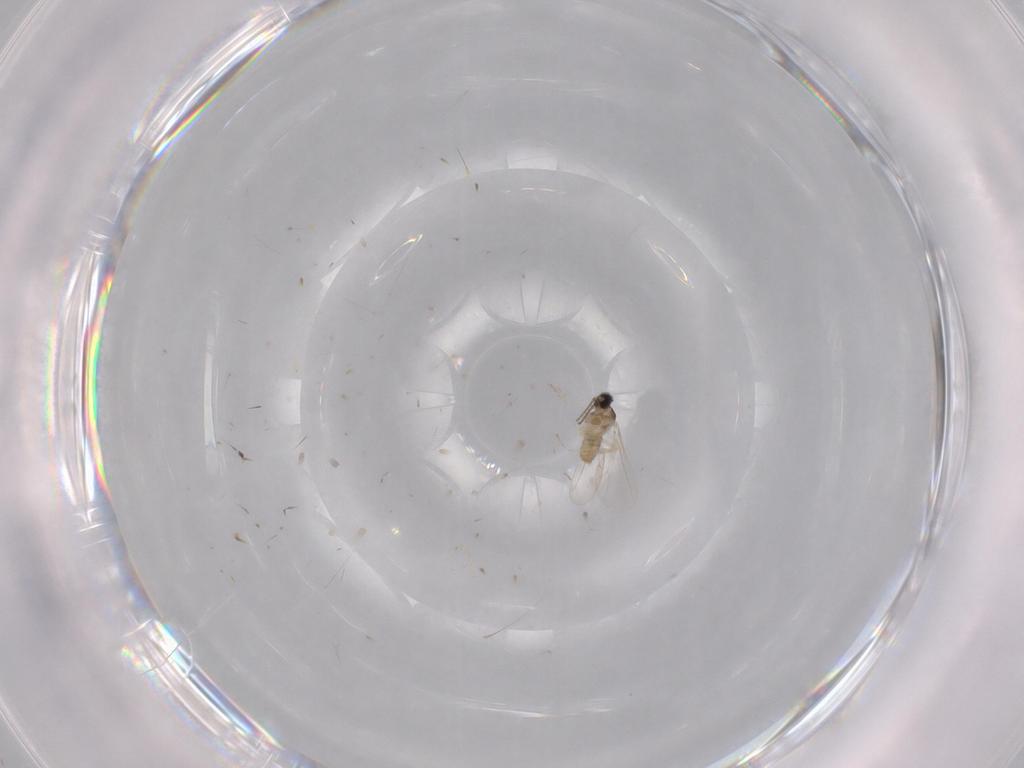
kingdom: Animalia
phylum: Arthropoda
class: Insecta
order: Diptera
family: Cecidomyiidae
